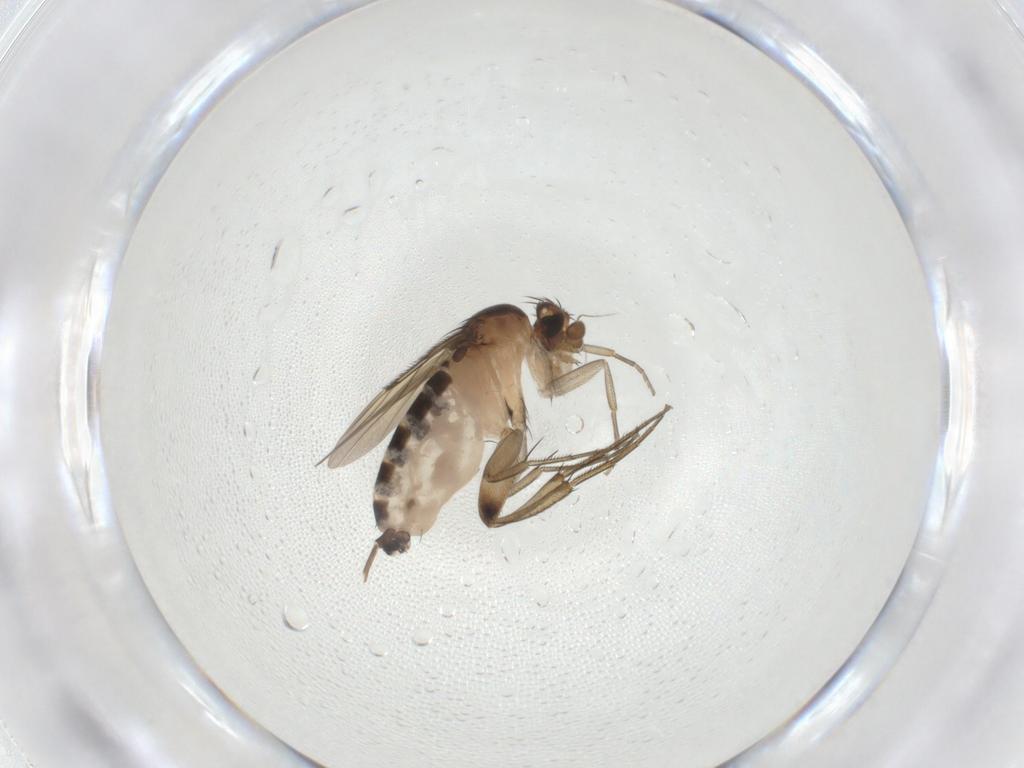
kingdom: Animalia
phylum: Arthropoda
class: Insecta
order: Diptera
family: Phoridae
